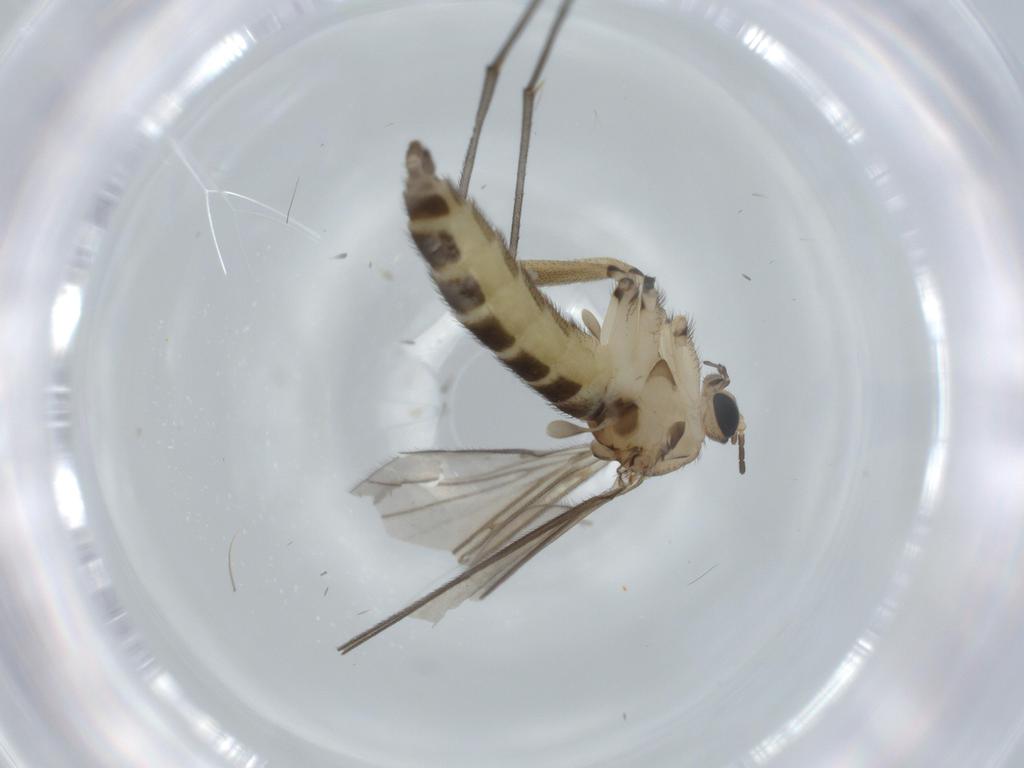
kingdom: Animalia
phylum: Arthropoda
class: Insecta
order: Diptera
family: Sciaridae
